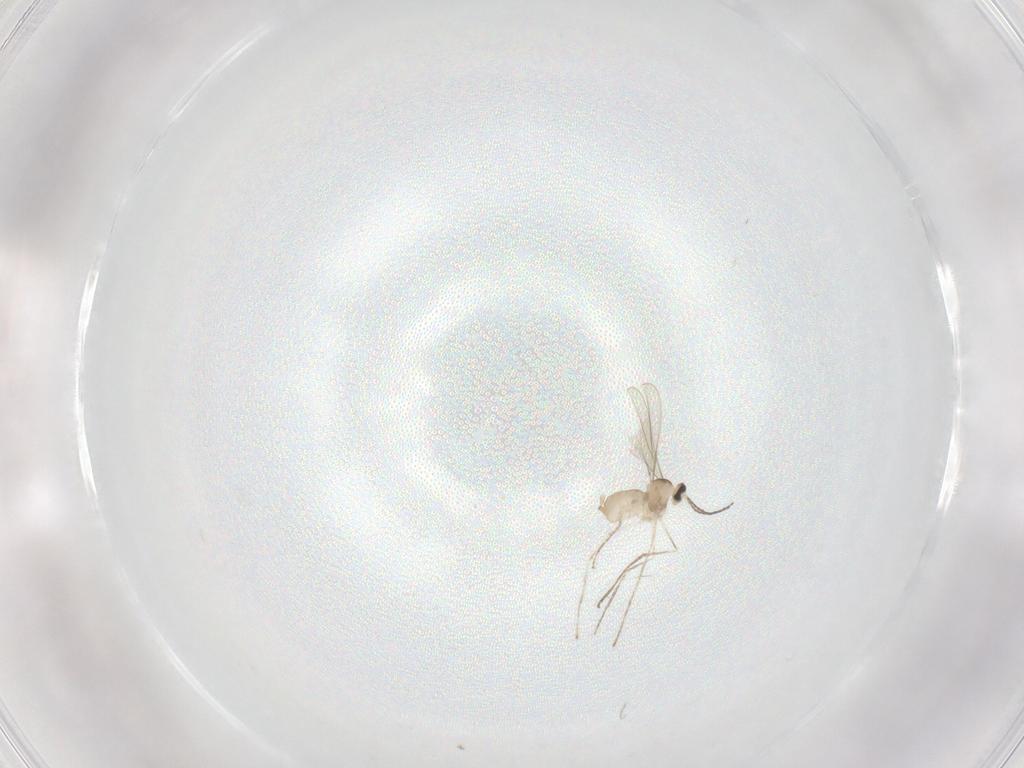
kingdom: Animalia
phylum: Arthropoda
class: Insecta
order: Diptera
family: Cecidomyiidae
